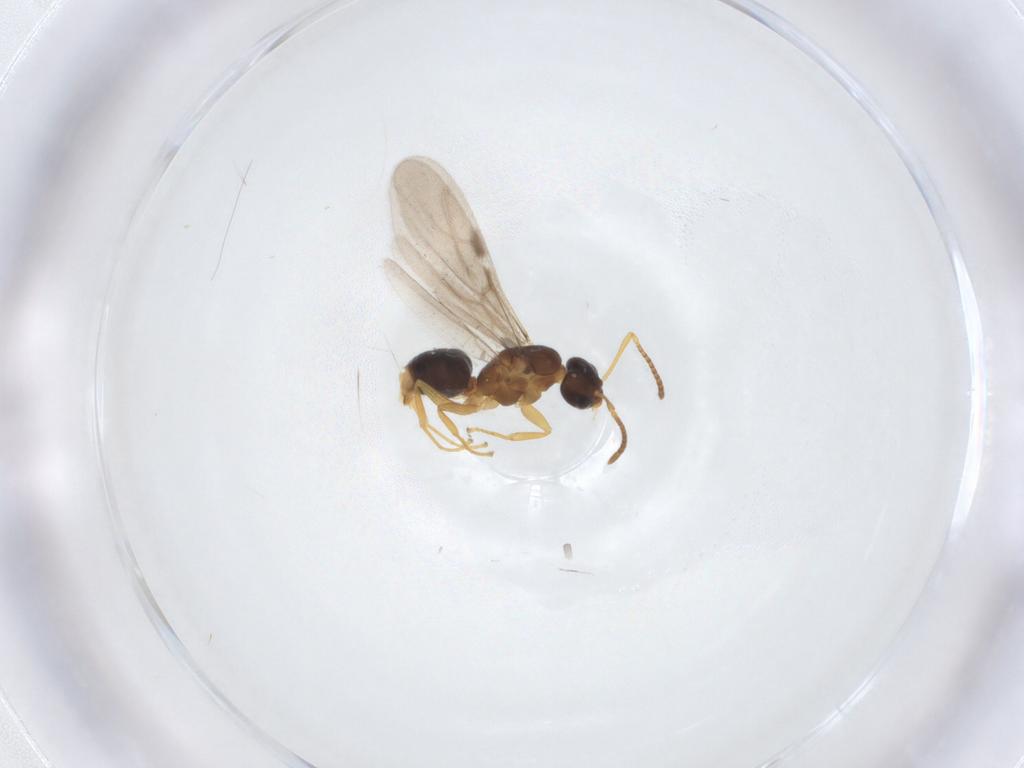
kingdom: Animalia
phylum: Arthropoda
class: Insecta
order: Hymenoptera
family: Formicidae
